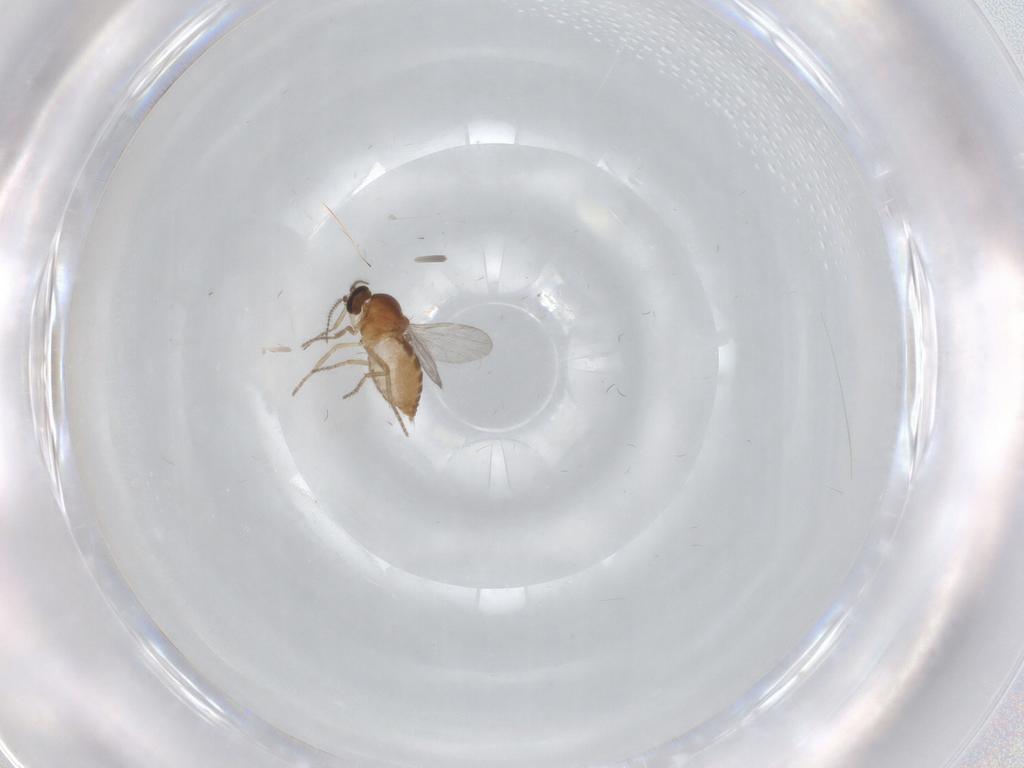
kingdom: Animalia
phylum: Arthropoda
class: Insecta
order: Diptera
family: Ceratopogonidae
